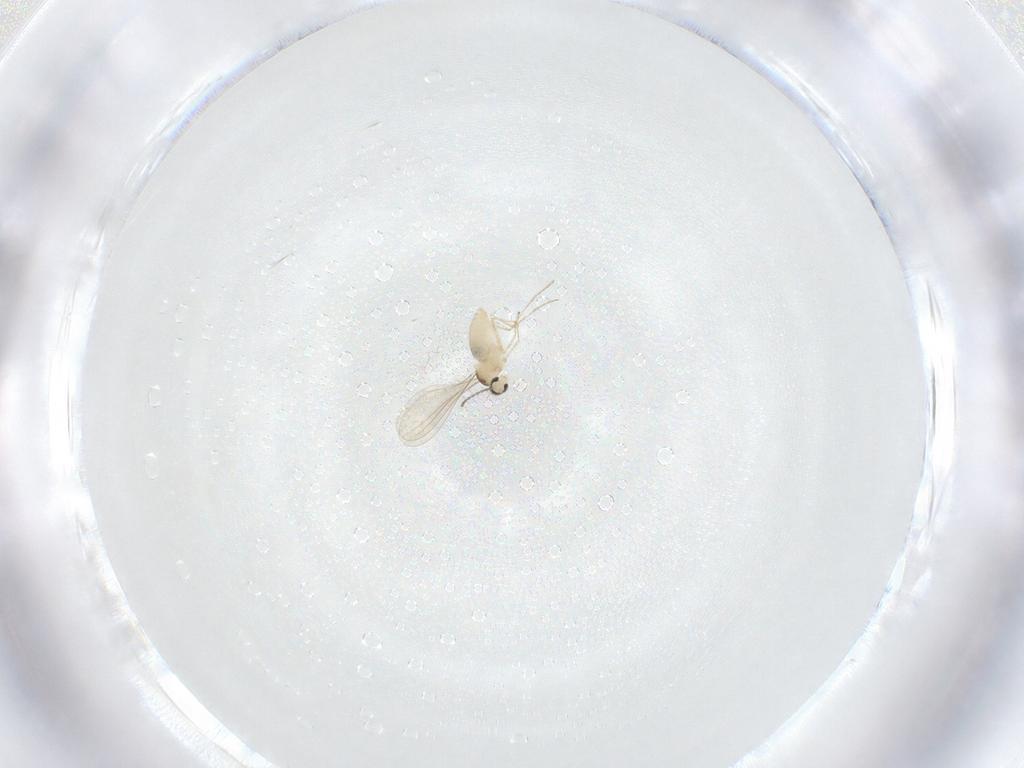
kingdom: Animalia
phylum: Arthropoda
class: Insecta
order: Diptera
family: Cecidomyiidae
